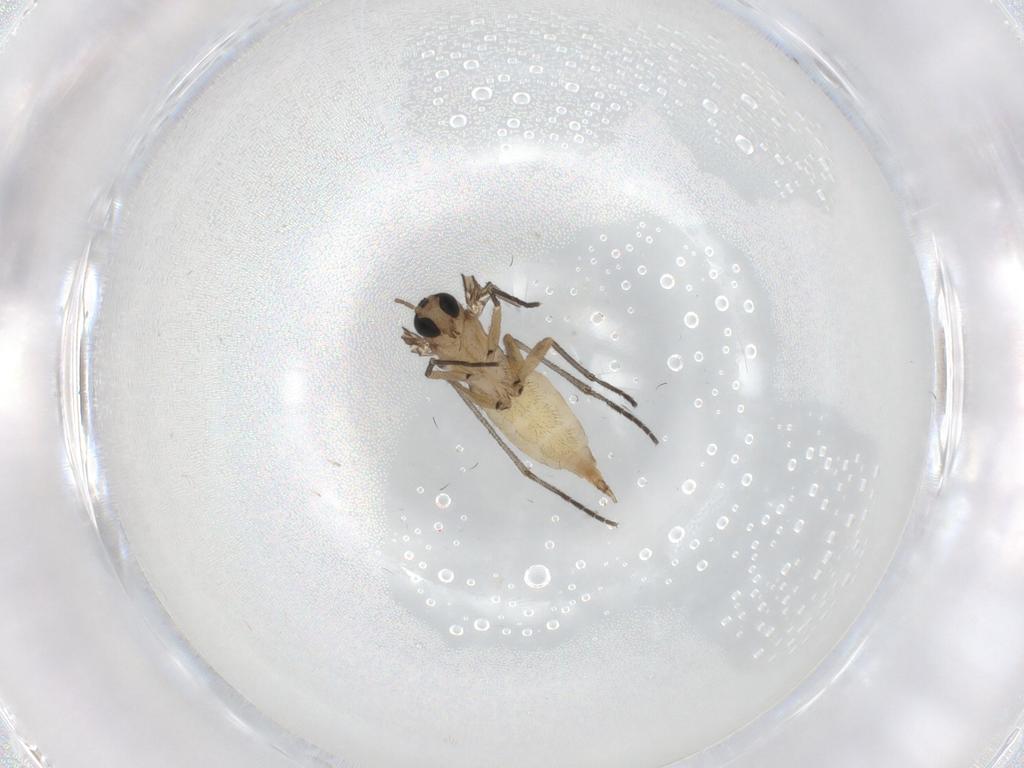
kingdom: Animalia
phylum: Arthropoda
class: Insecta
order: Diptera
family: Sciaridae
